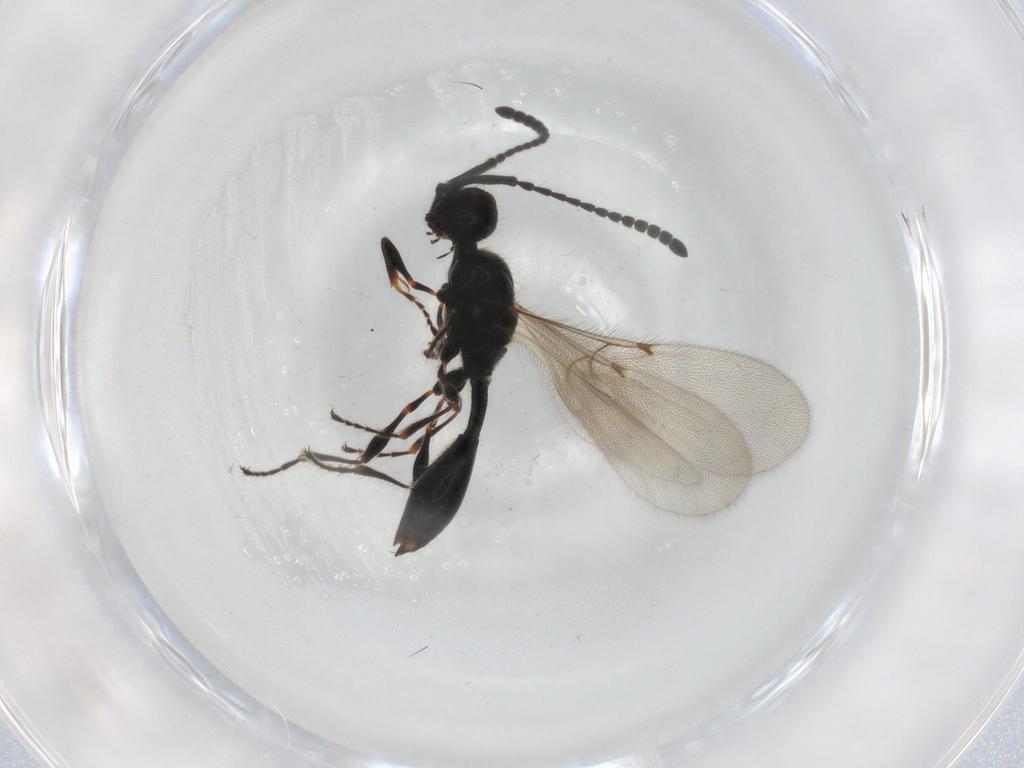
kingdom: Animalia
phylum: Arthropoda
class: Insecta
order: Hymenoptera
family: Diapriidae
